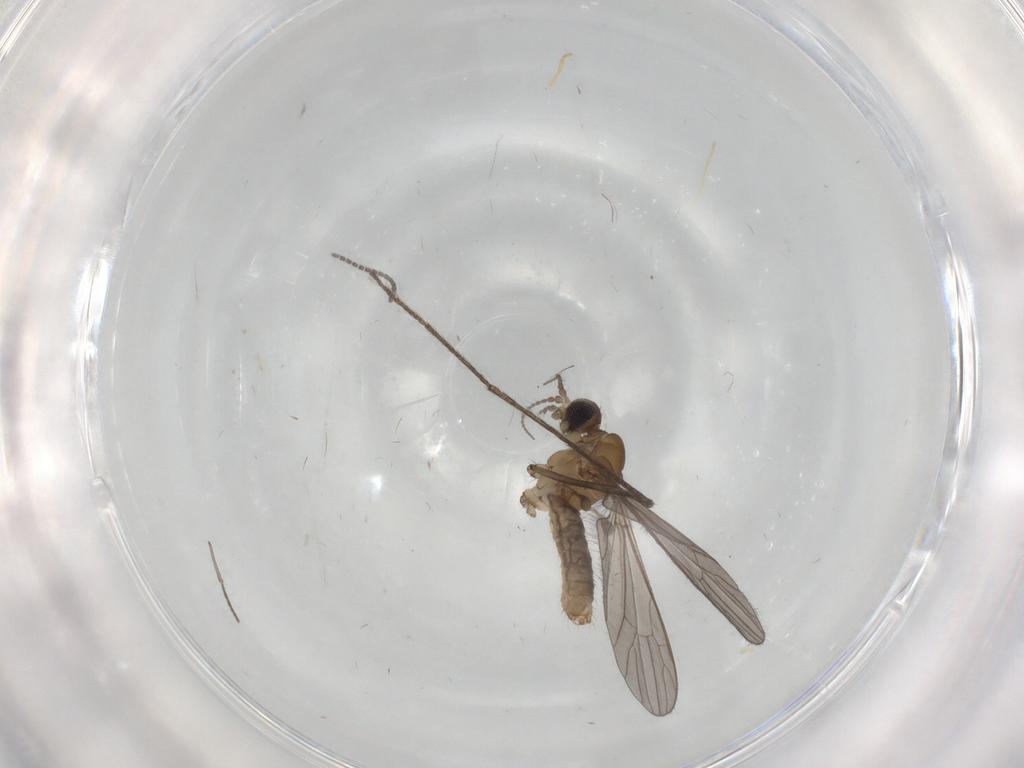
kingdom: Animalia
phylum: Arthropoda
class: Insecta
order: Diptera
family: Limoniidae
